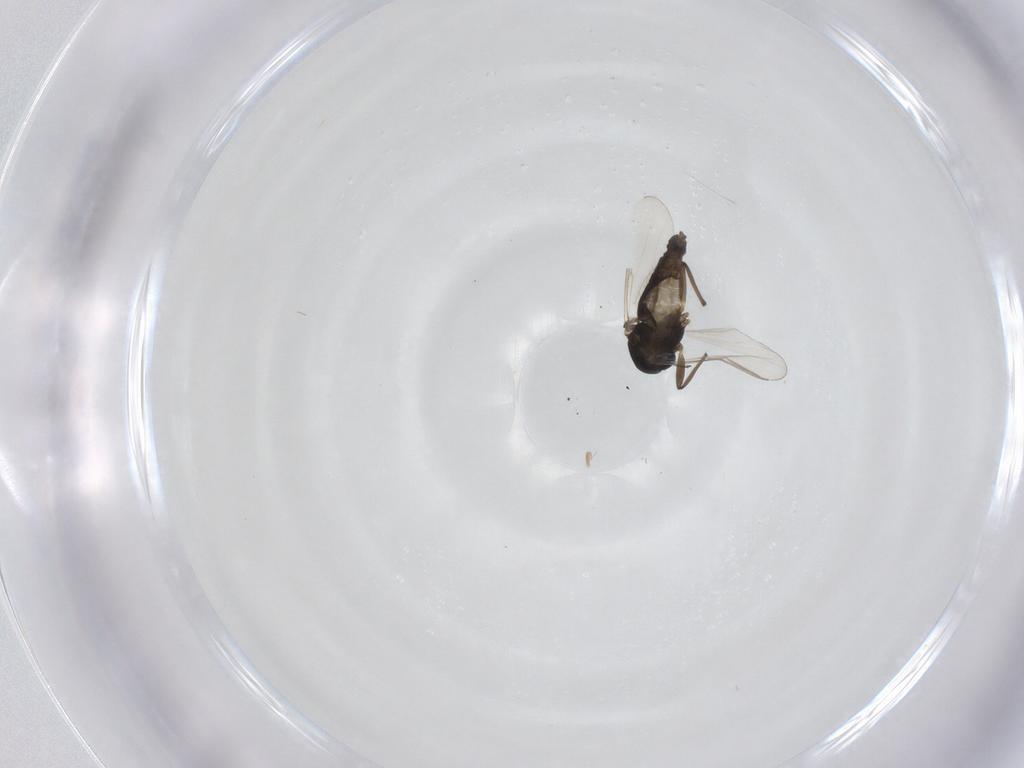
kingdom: Animalia
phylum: Arthropoda
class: Insecta
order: Diptera
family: Chironomidae
